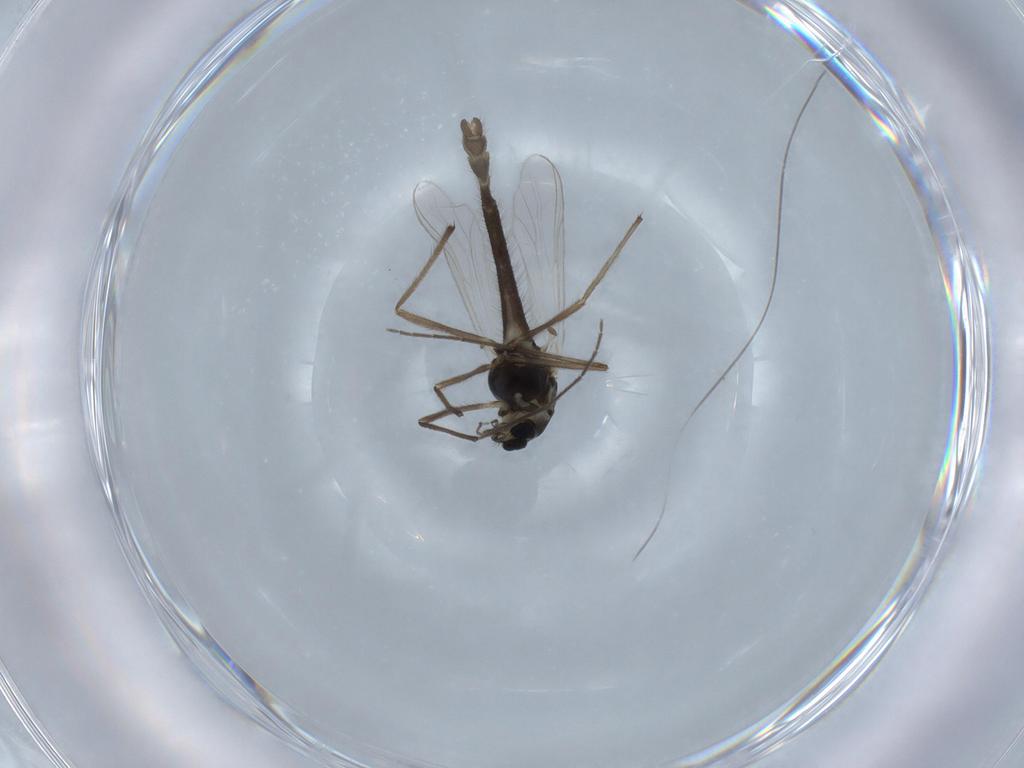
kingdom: Animalia
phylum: Arthropoda
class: Insecta
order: Diptera
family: Chironomidae
